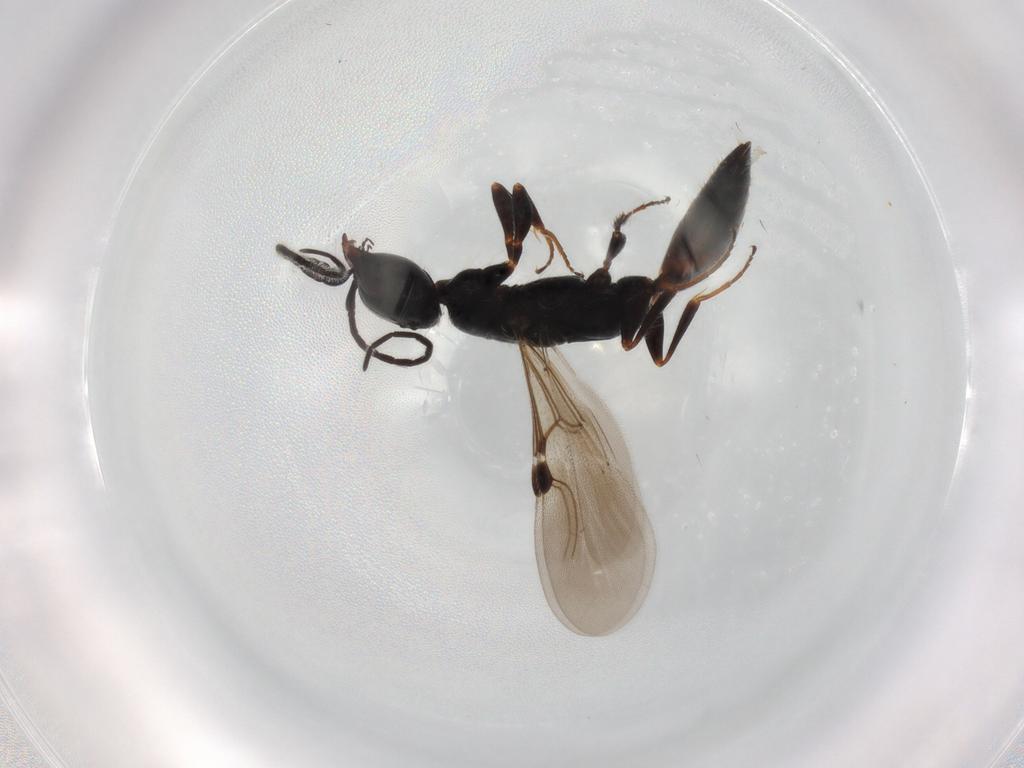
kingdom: Animalia
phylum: Arthropoda
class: Insecta
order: Hymenoptera
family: Bethylidae
